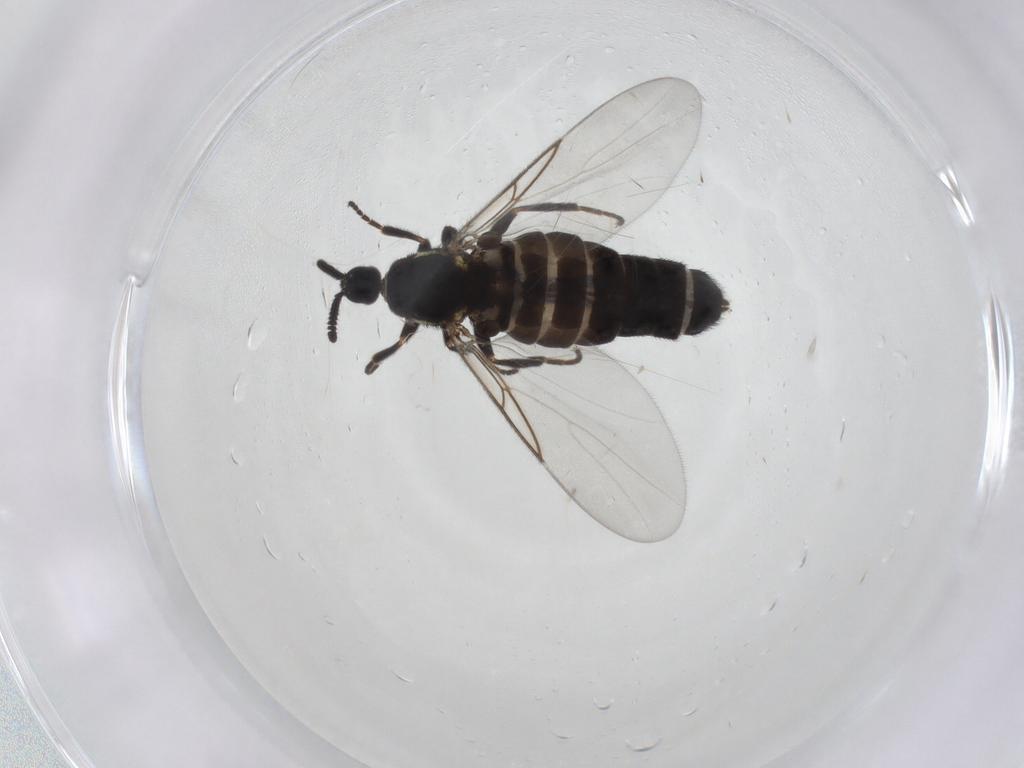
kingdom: Animalia
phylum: Arthropoda
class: Insecta
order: Diptera
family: Scatopsidae
